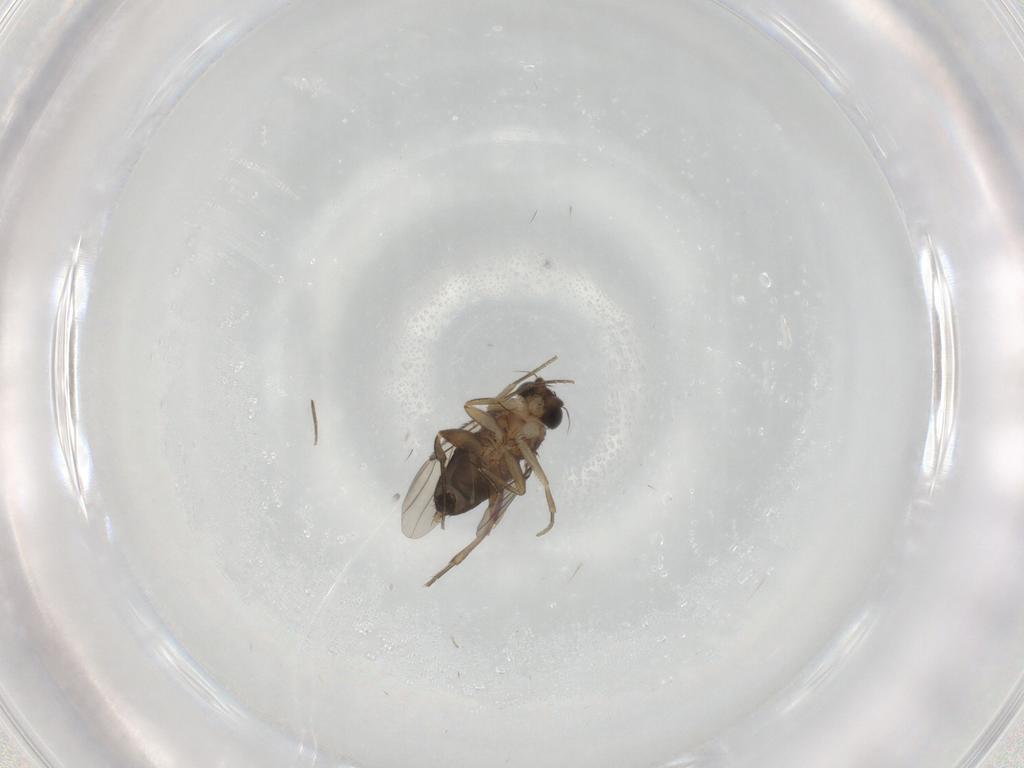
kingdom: Animalia
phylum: Arthropoda
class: Insecta
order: Diptera
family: Phoridae
